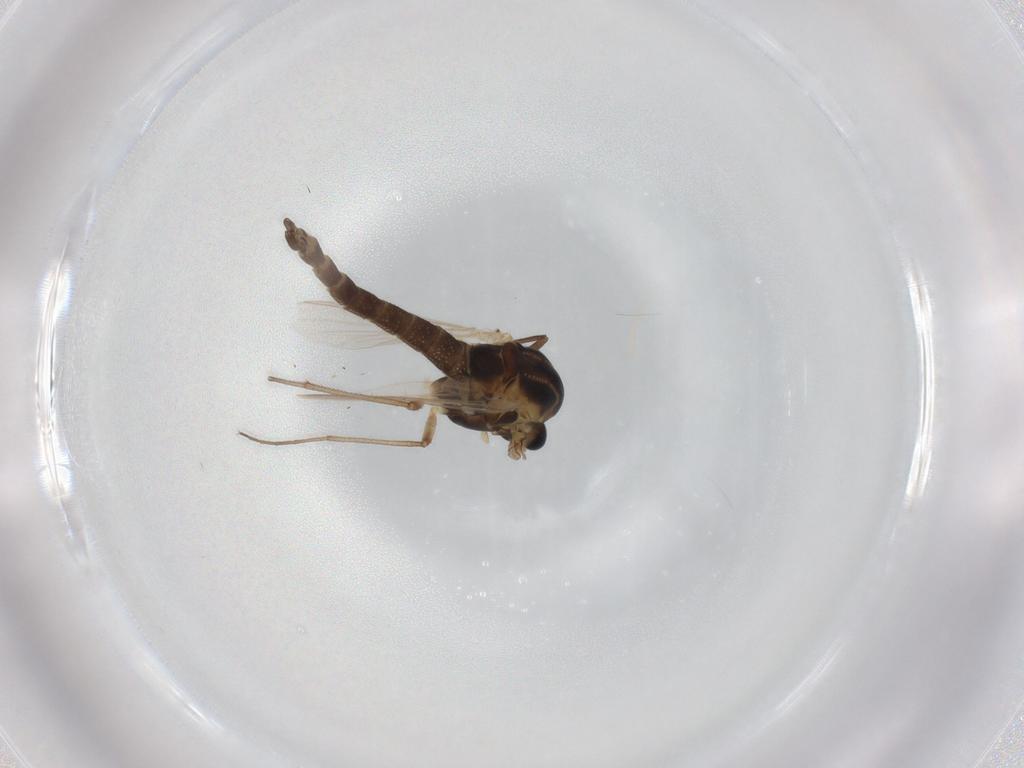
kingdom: Animalia
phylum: Arthropoda
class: Insecta
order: Diptera
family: Chironomidae
